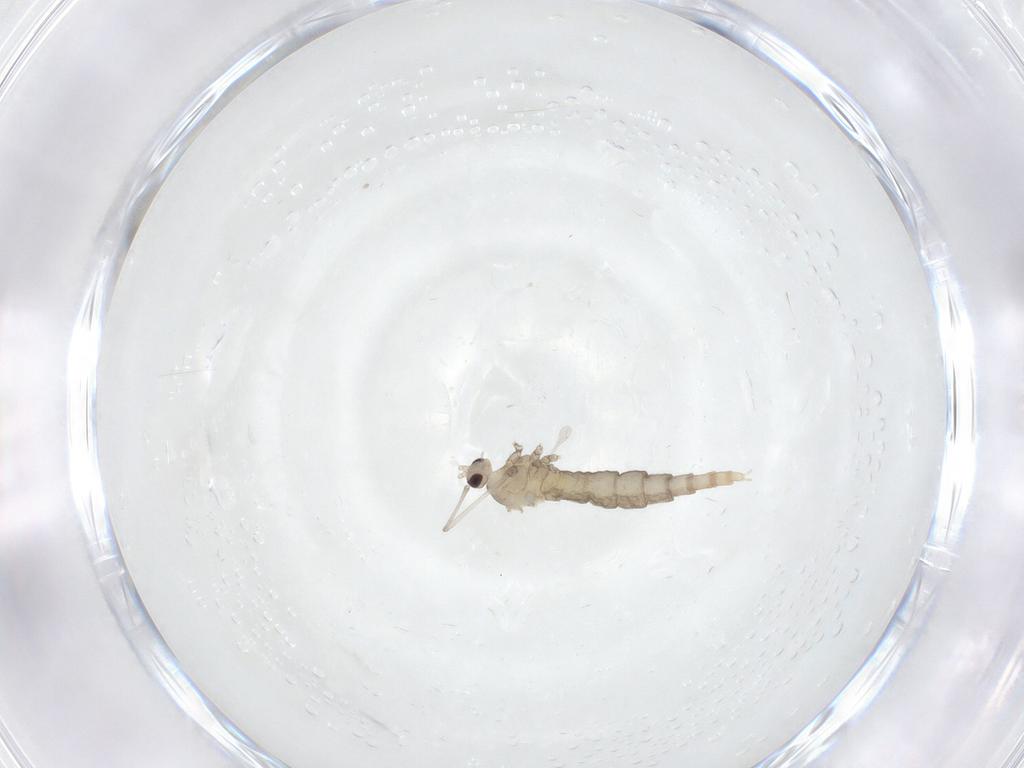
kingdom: Animalia
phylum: Arthropoda
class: Insecta
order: Diptera
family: Cecidomyiidae
